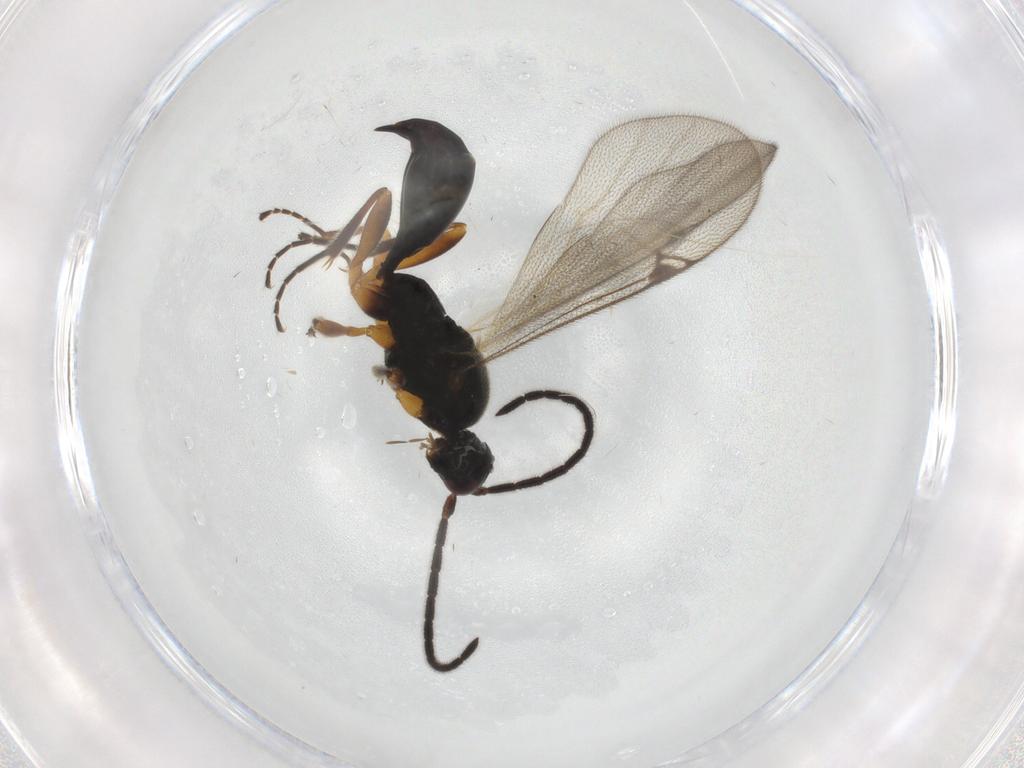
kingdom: Animalia
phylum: Arthropoda
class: Insecta
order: Hymenoptera
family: Proctotrupidae
